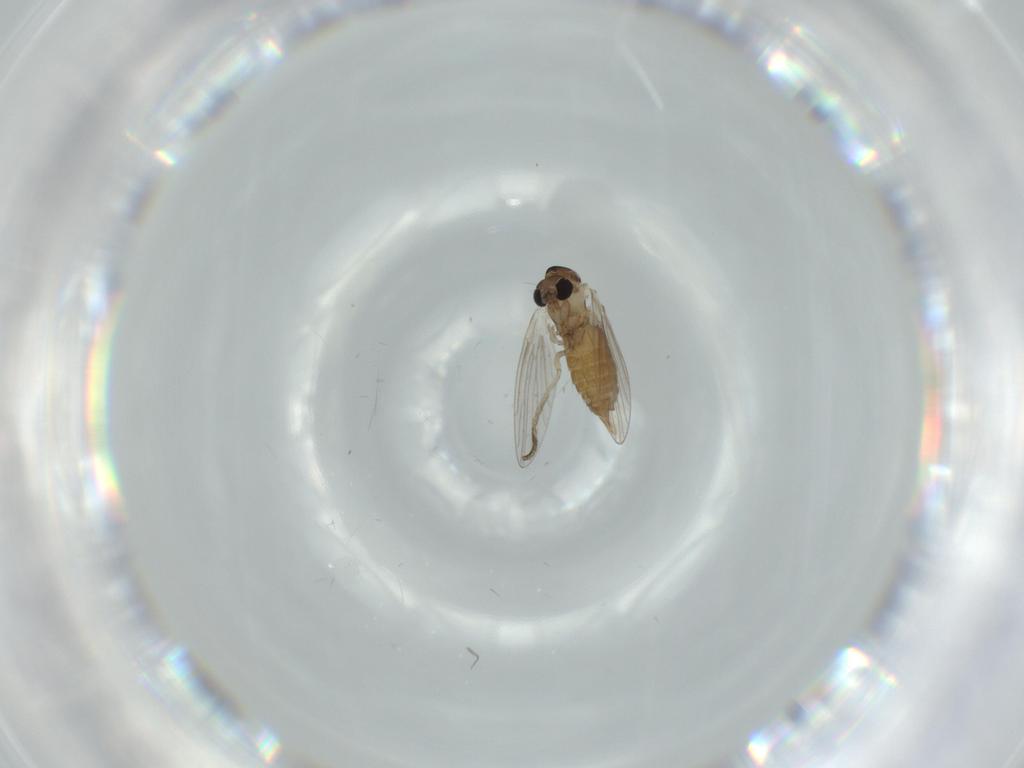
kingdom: Animalia
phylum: Arthropoda
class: Insecta
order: Diptera
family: Psychodidae
